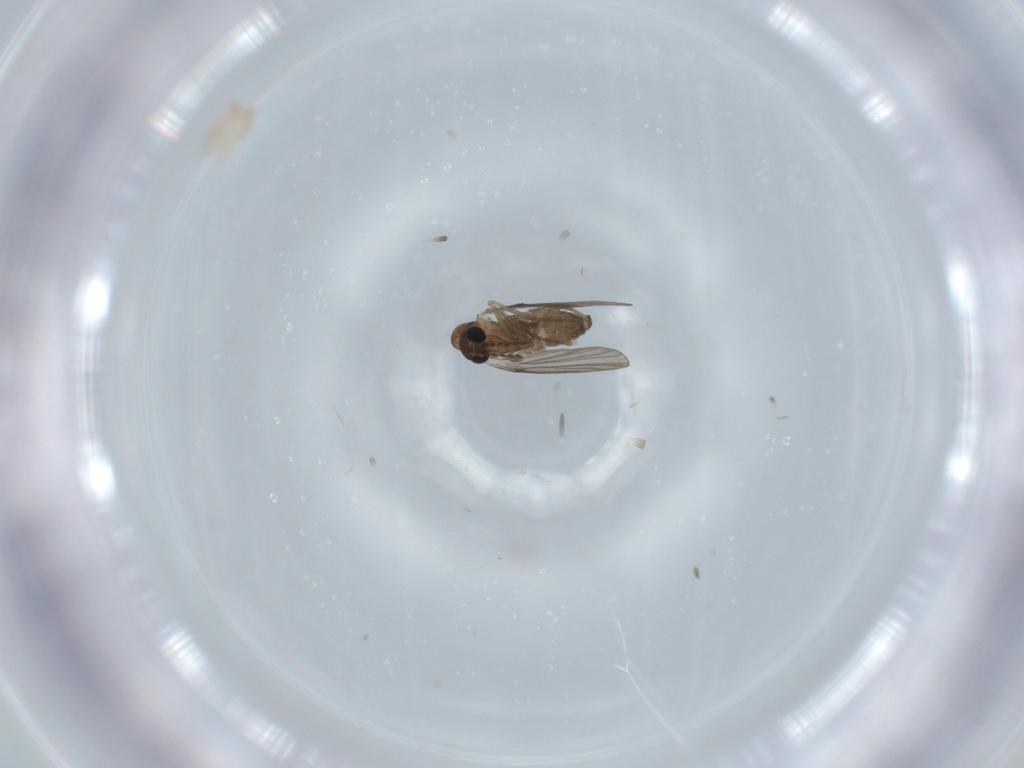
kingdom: Animalia
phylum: Arthropoda
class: Insecta
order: Diptera
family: Psychodidae
